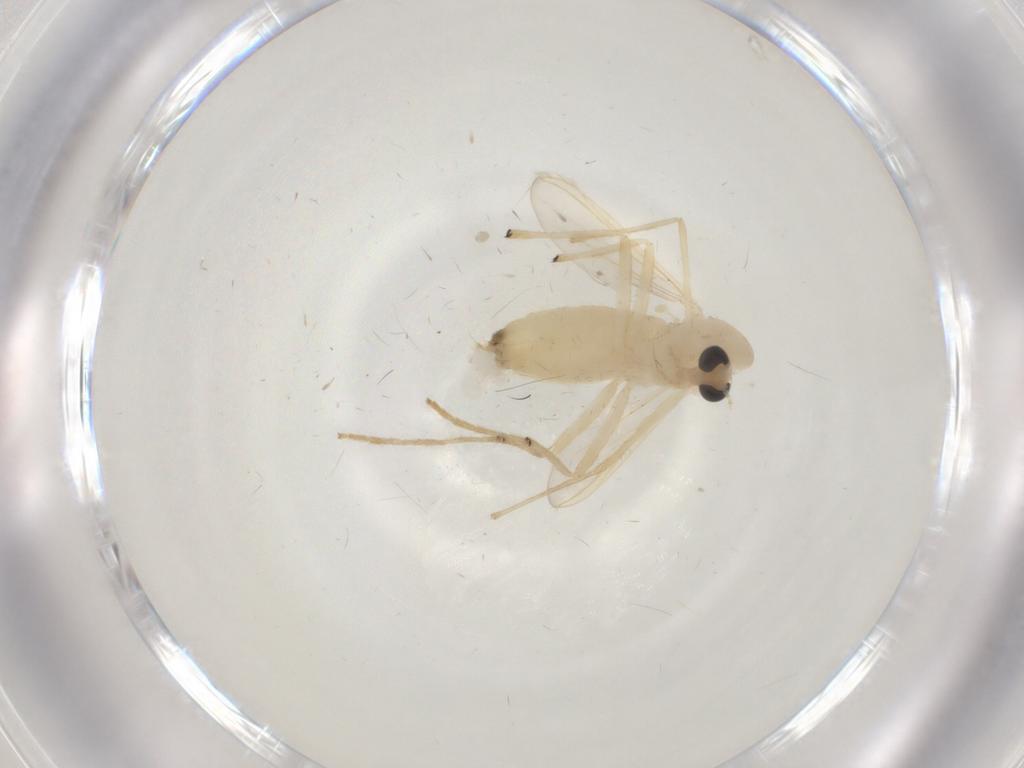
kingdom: Animalia
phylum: Arthropoda
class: Insecta
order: Diptera
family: Chironomidae
